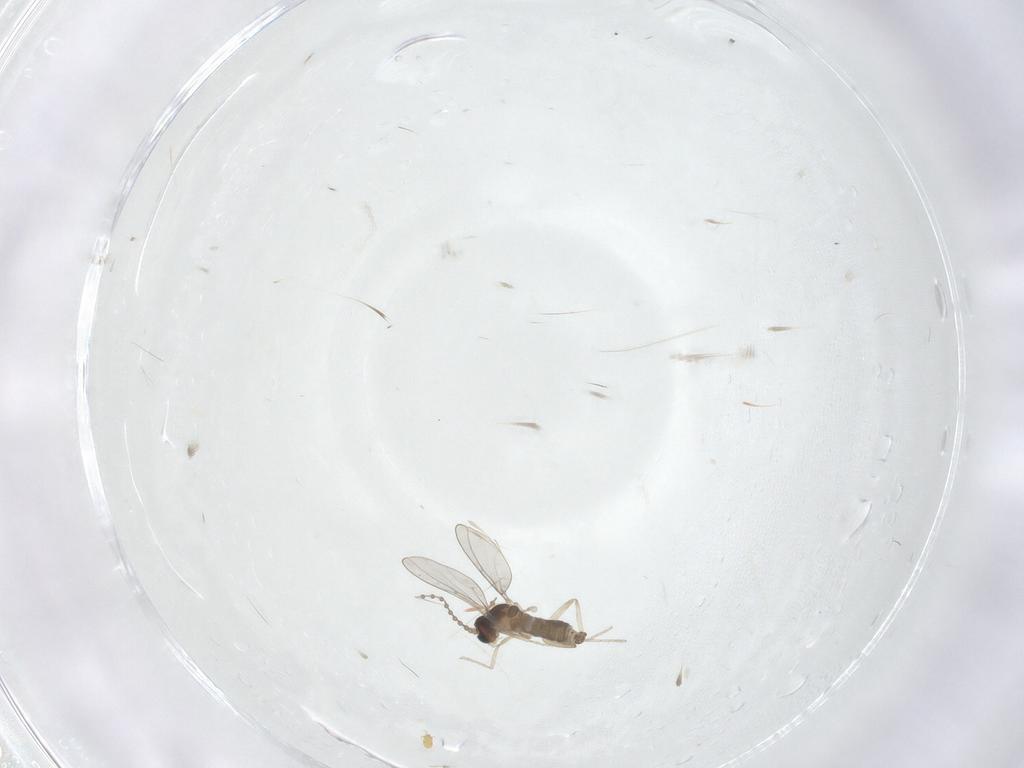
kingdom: Animalia
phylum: Arthropoda
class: Insecta
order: Diptera
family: Cecidomyiidae
